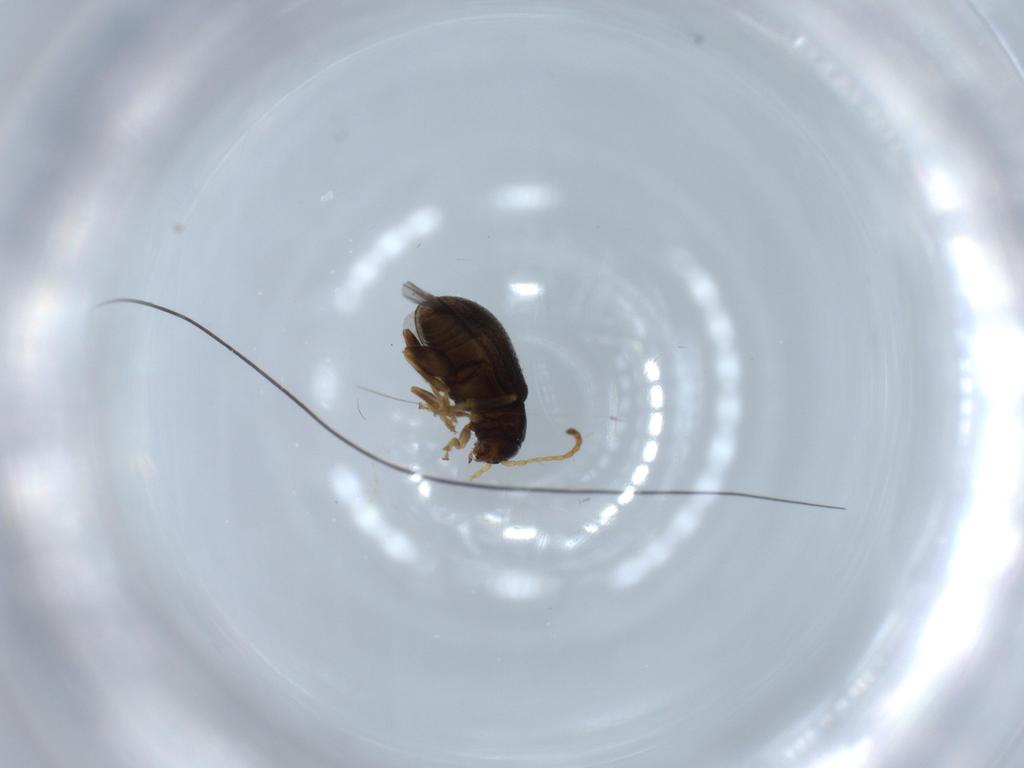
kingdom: Animalia
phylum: Arthropoda
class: Insecta
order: Coleoptera
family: Chrysomelidae
